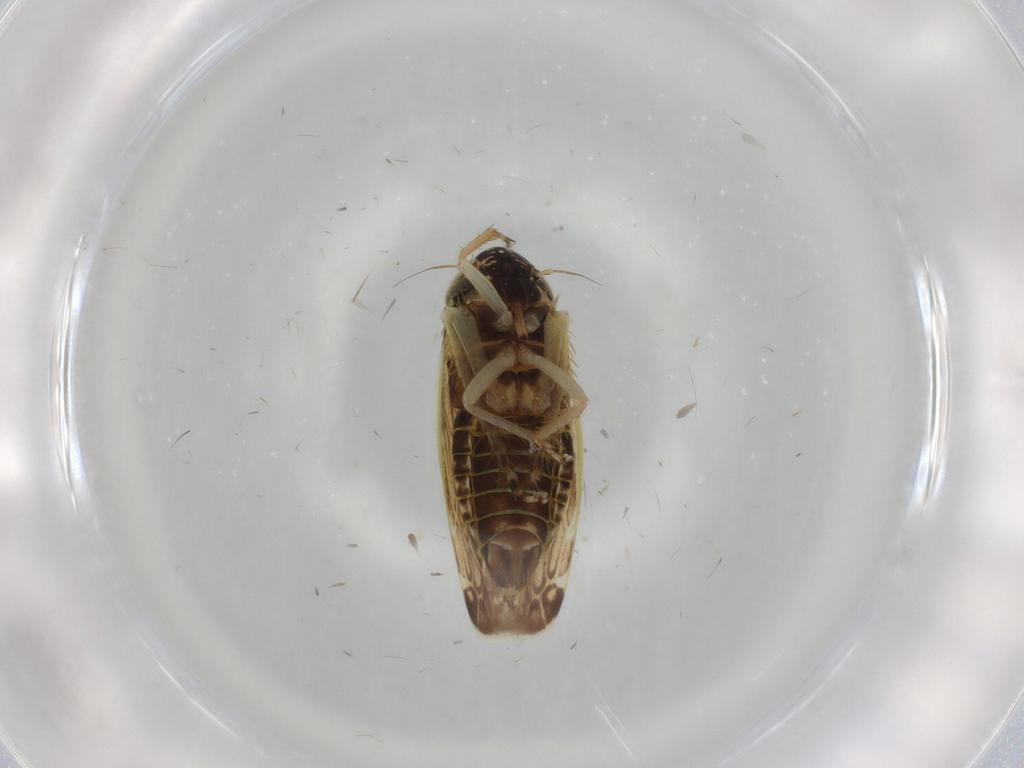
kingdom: Animalia
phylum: Arthropoda
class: Insecta
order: Hemiptera
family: Cicadellidae
